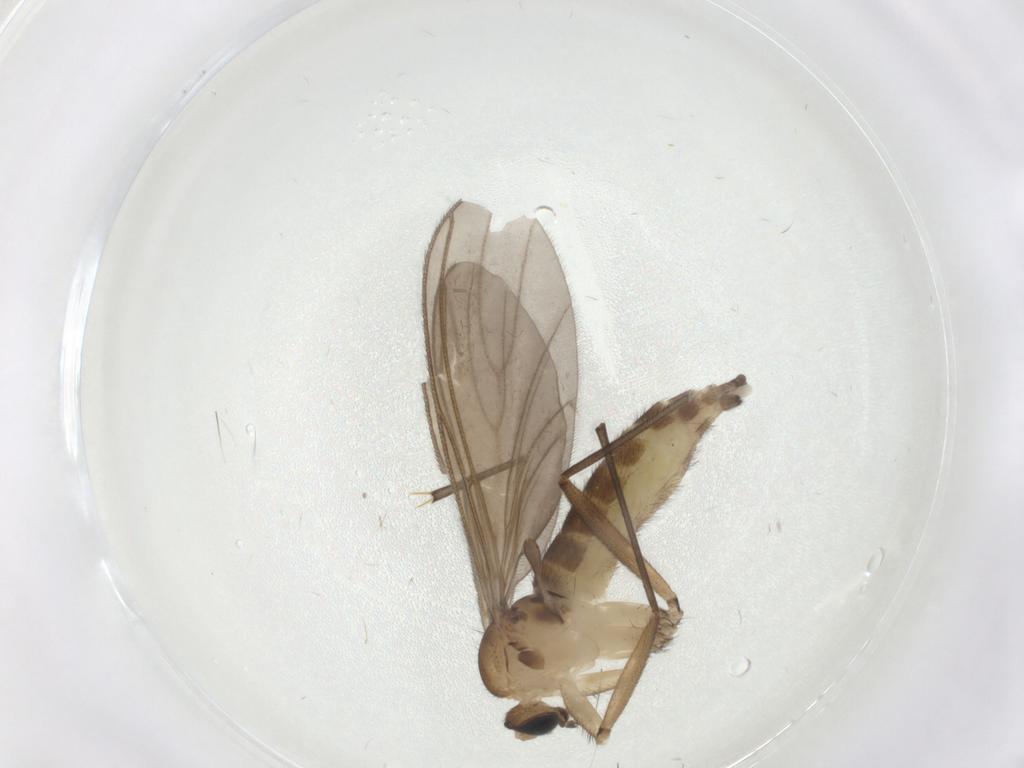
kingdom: Animalia
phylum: Arthropoda
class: Insecta
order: Diptera
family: Sciaridae
